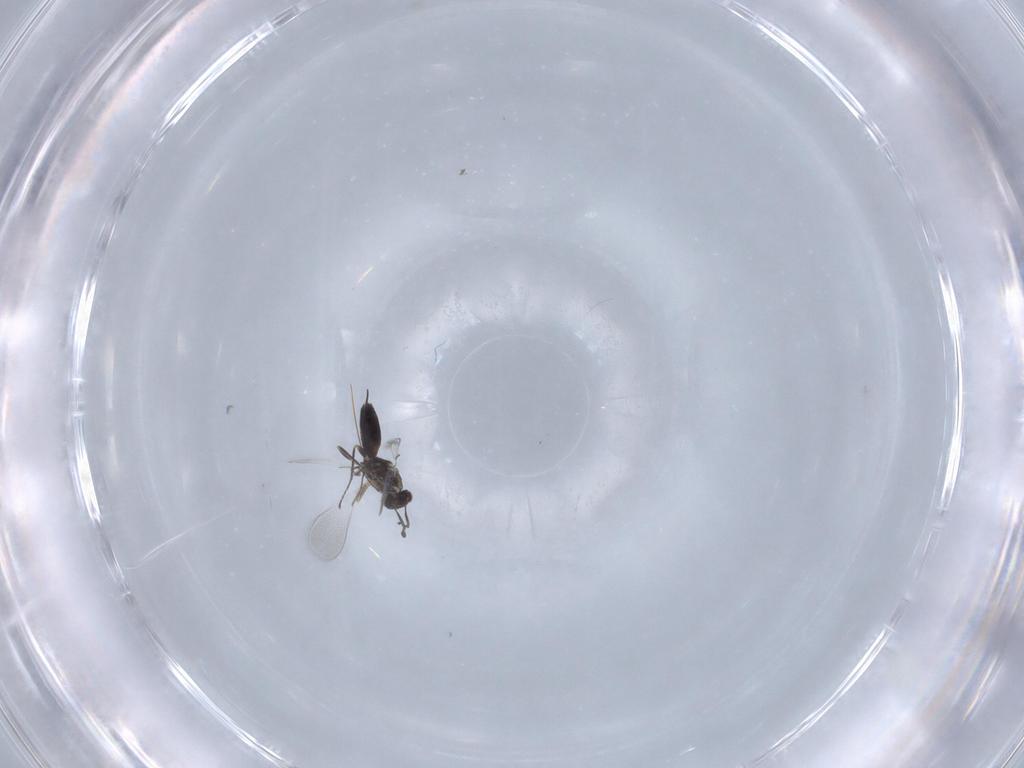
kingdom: Animalia
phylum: Arthropoda
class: Insecta
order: Hymenoptera
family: Mymaridae
